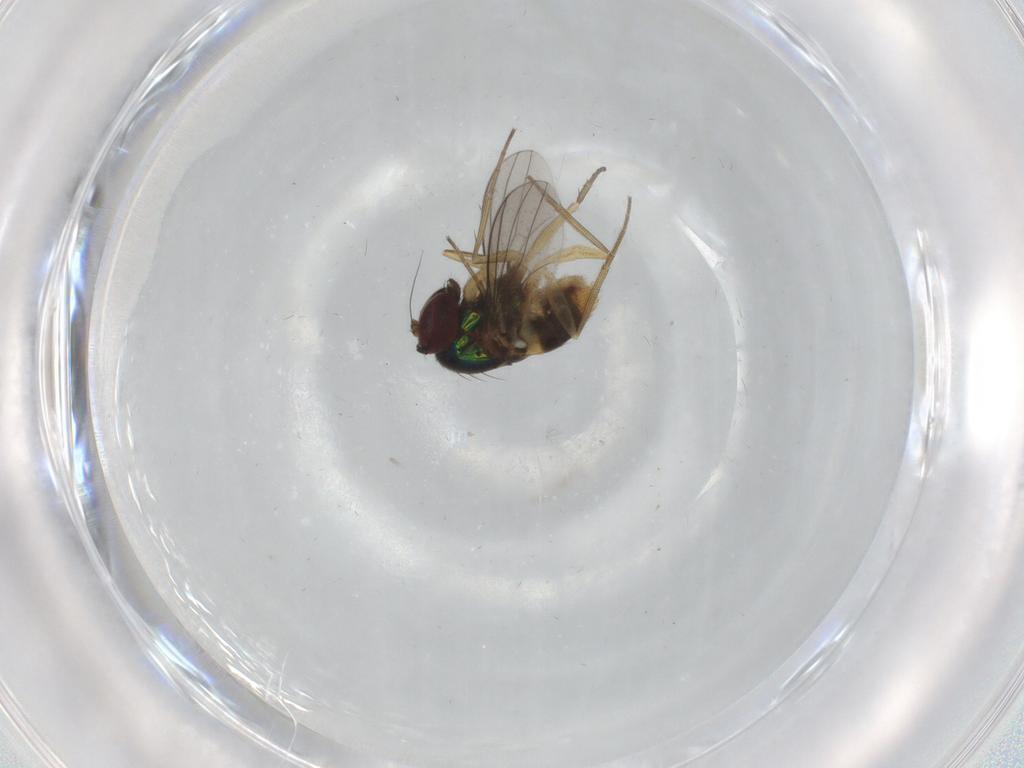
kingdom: Animalia
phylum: Arthropoda
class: Insecta
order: Diptera
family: Dolichopodidae
